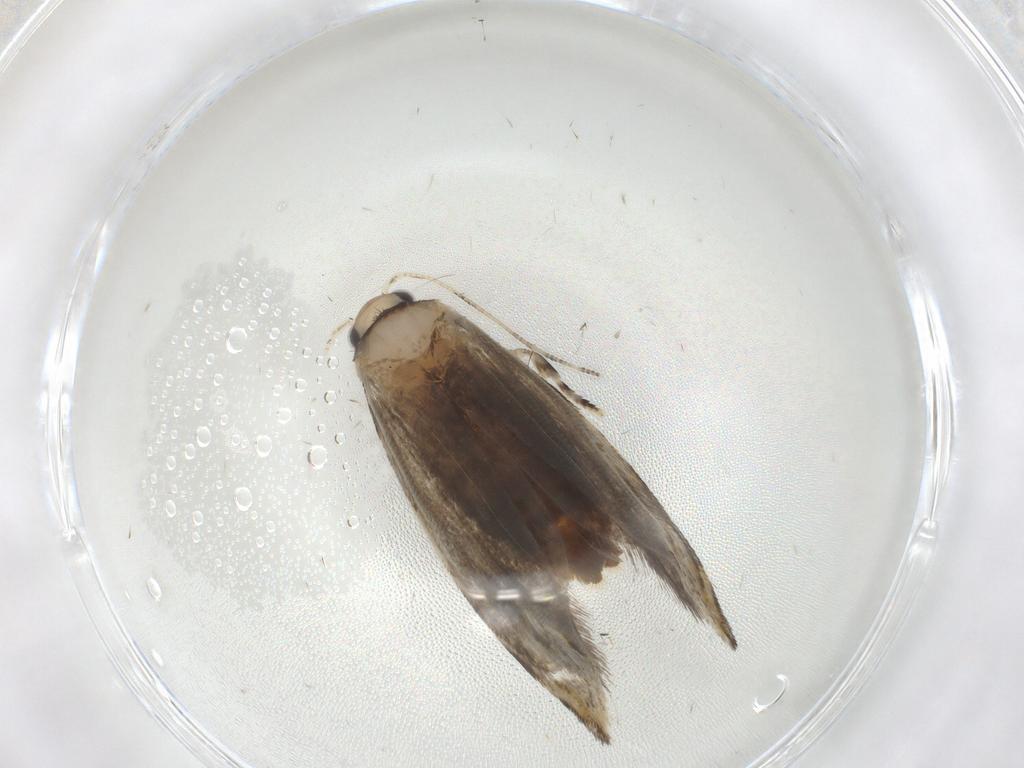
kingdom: Animalia
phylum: Arthropoda
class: Insecta
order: Lepidoptera
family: Tineidae
